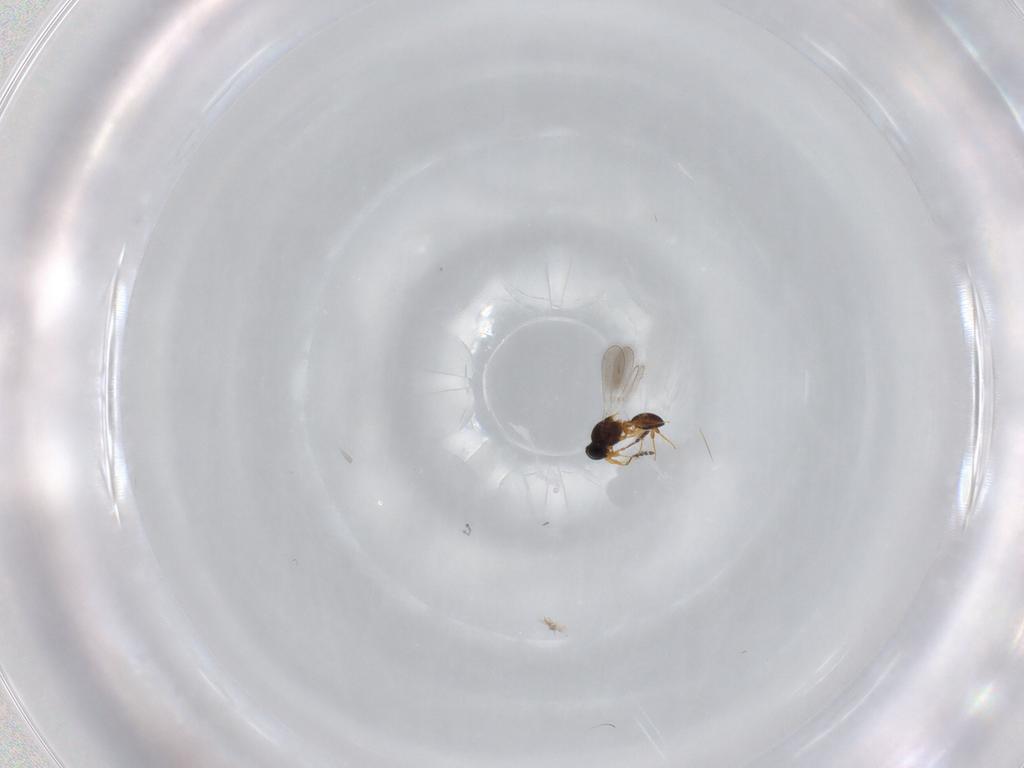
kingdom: Animalia
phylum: Arthropoda
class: Insecta
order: Hymenoptera
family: Platygastridae
